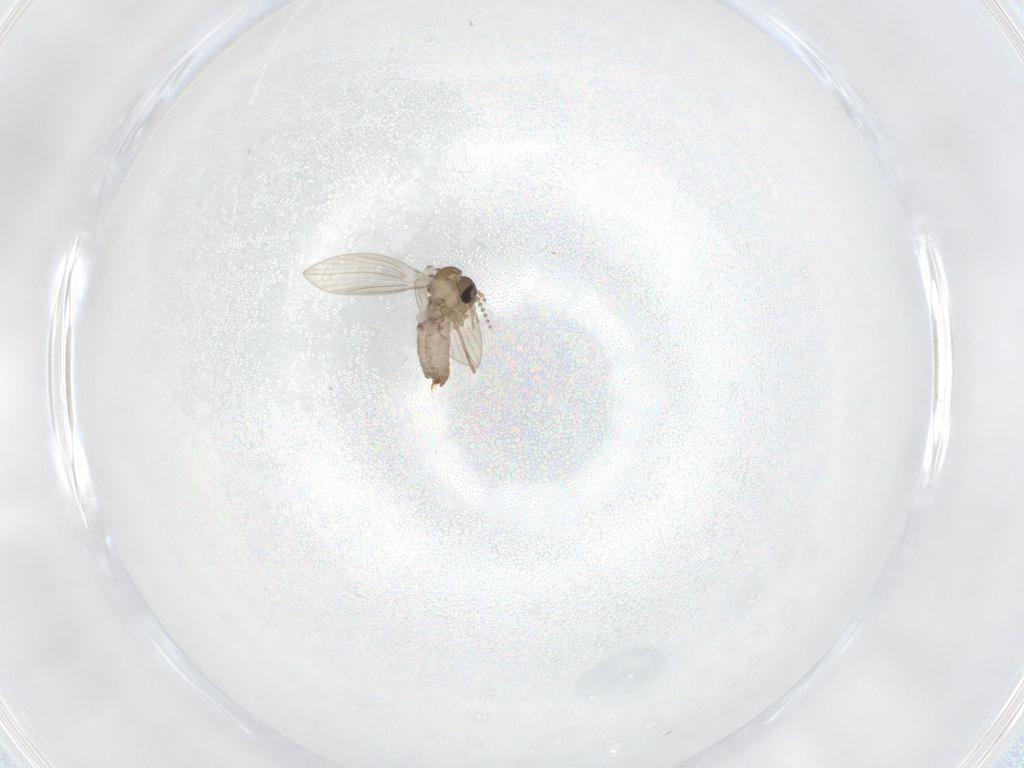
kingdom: Animalia
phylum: Arthropoda
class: Insecta
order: Diptera
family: Psychodidae
